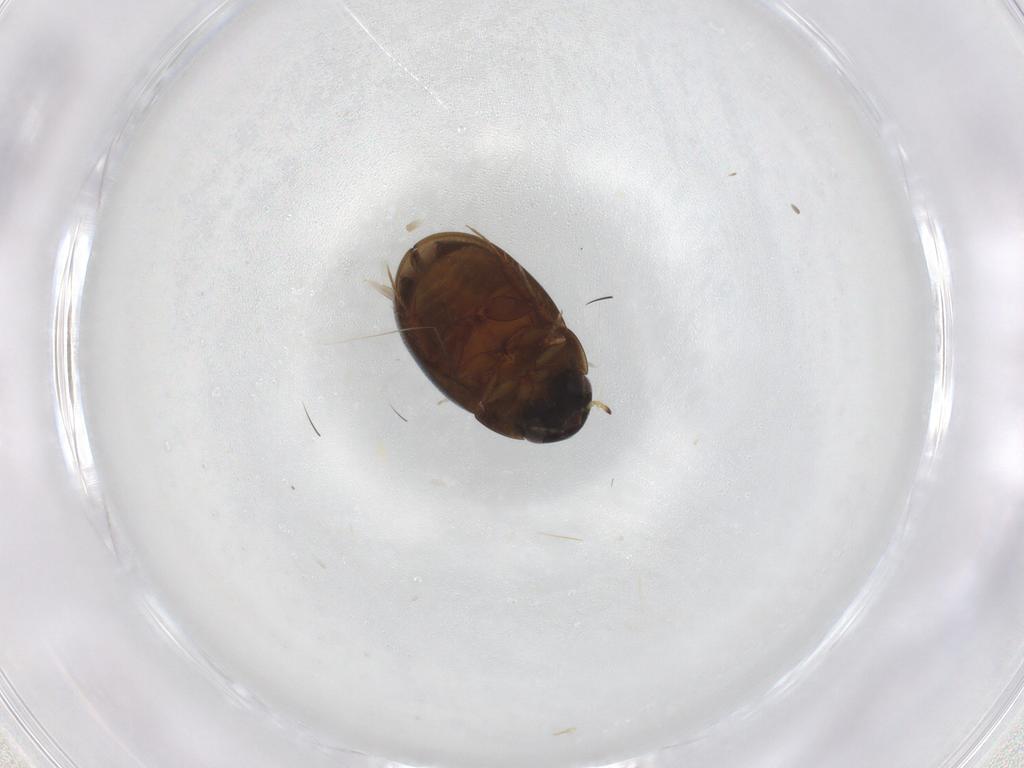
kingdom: Animalia
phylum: Arthropoda
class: Insecta
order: Coleoptera
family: Hydrophilidae
